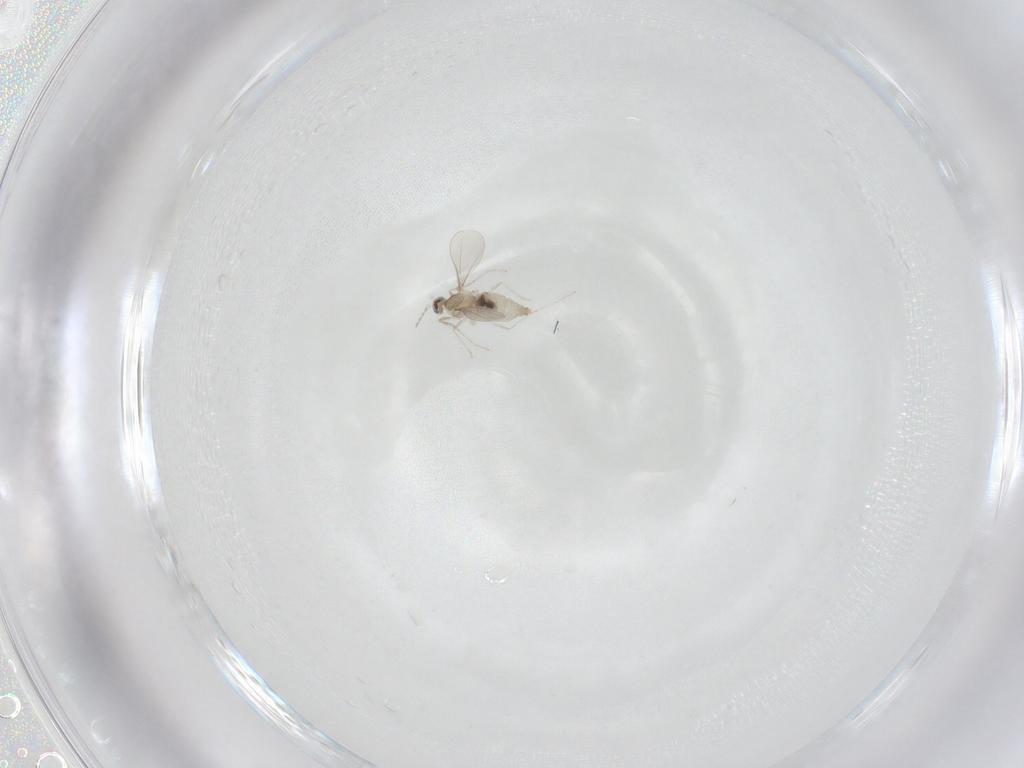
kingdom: Animalia
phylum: Arthropoda
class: Insecta
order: Diptera
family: Cecidomyiidae
